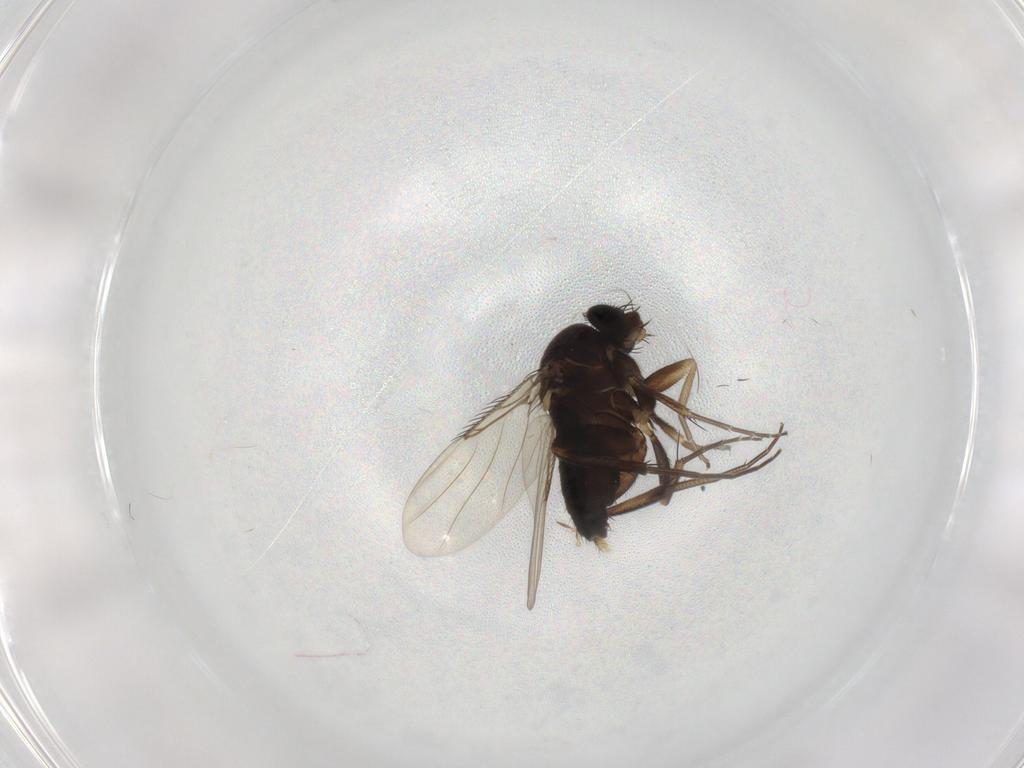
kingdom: Animalia
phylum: Arthropoda
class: Insecta
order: Diptera
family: Phoridae
